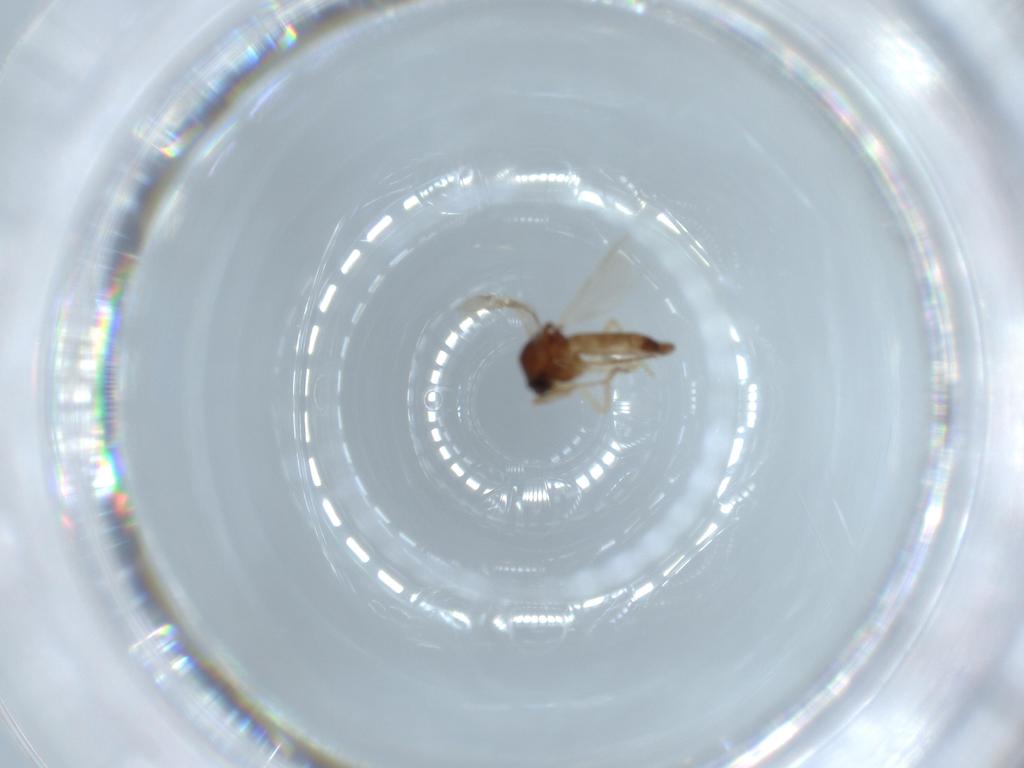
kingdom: Animalia
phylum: Arthropoda
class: Insecta
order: Diptera
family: Ceratopogonidae
